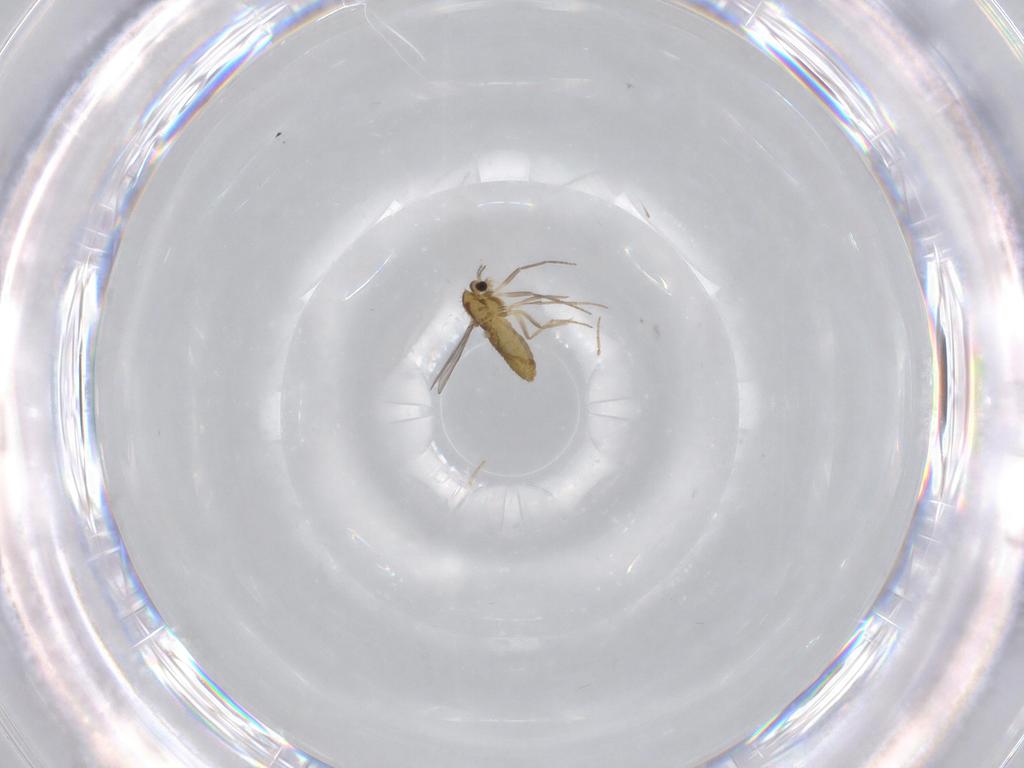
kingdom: Animalia
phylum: Arthropoda
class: Insecta
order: Diptera
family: Chironomidae
